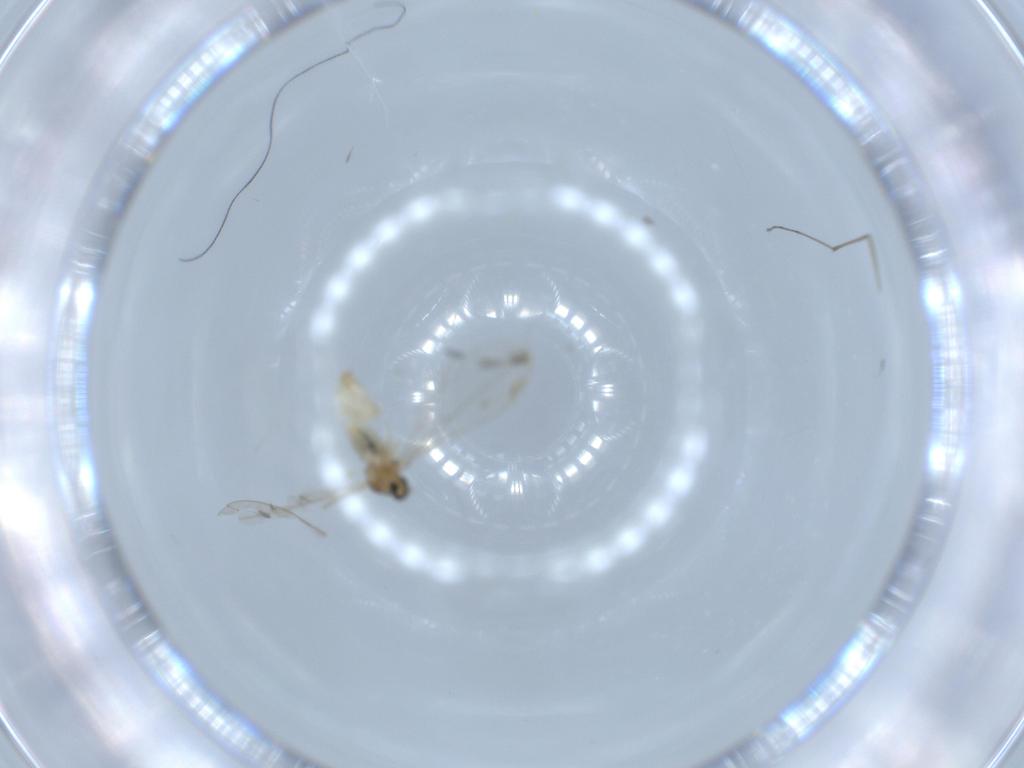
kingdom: Animalia
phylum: Arthropoda
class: Insecta
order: Diptera
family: Cecidomyiidae
